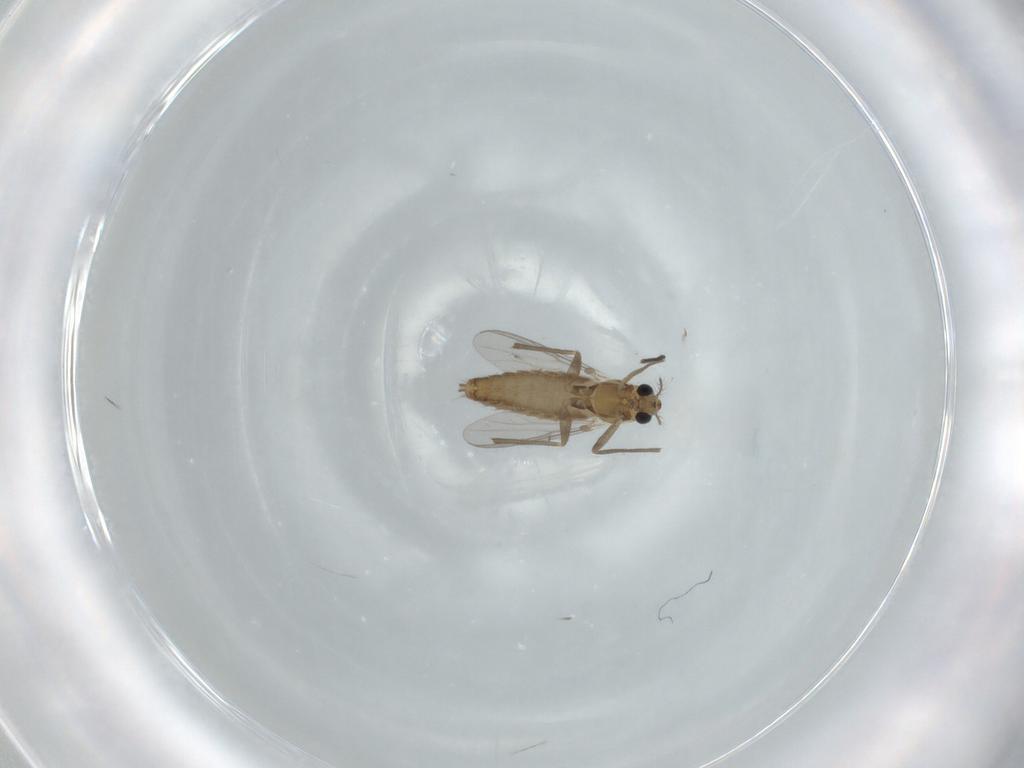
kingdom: Animalia
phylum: Arthropoda
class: Insecta
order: Diptera
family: Chironomidae
